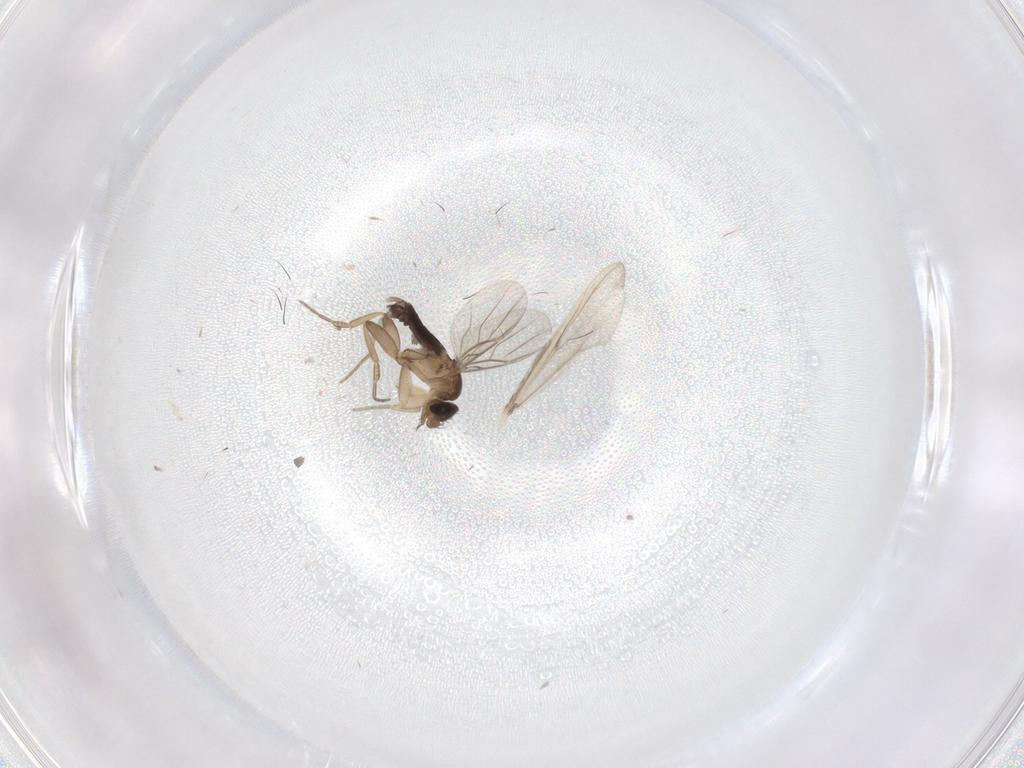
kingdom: Animalia
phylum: Arthropoda
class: Insecta
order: Diptera
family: Phoridae
